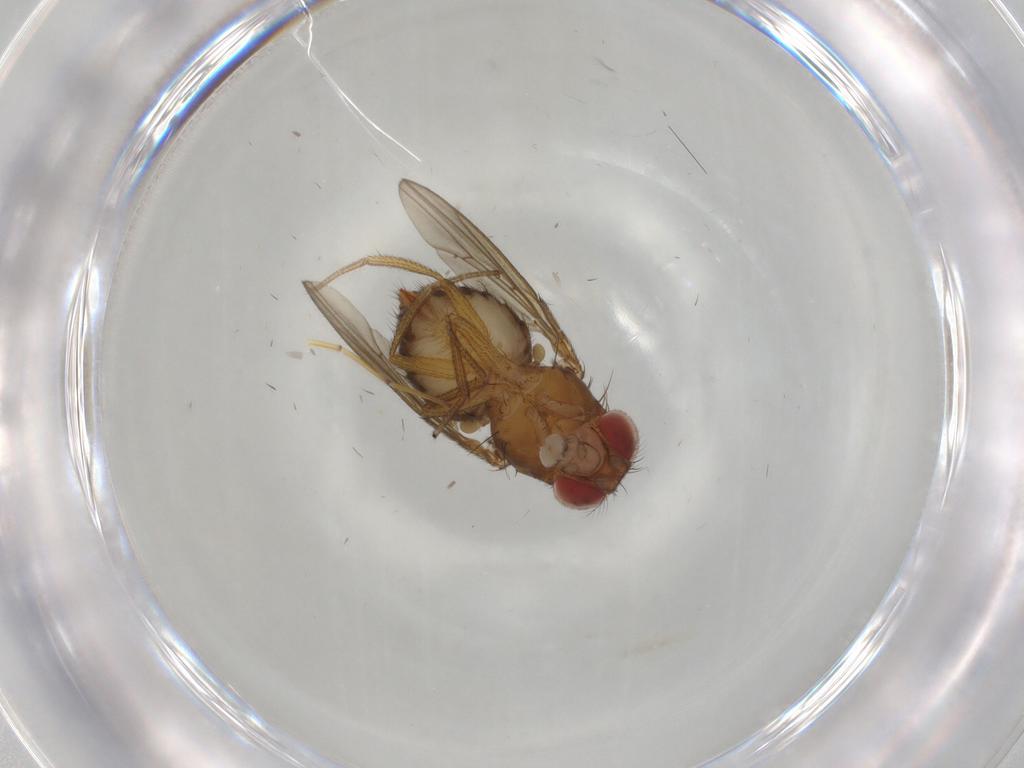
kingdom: Animalia
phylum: Arthropoda
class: Insecta
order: Diptera
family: Drosophilidae
